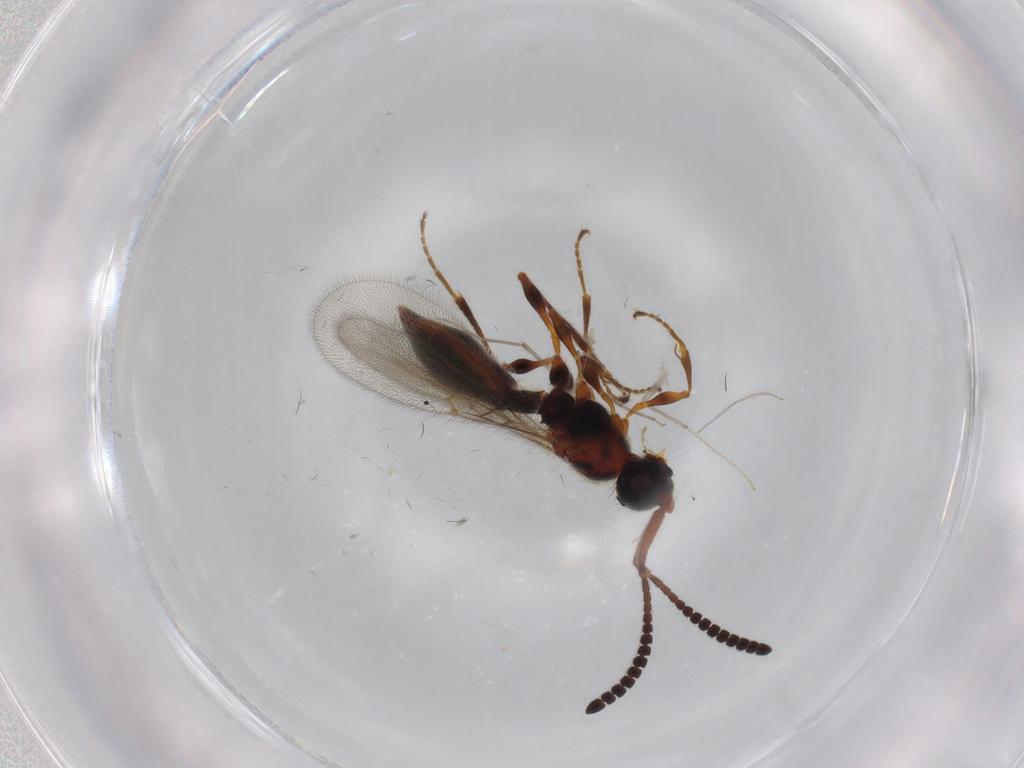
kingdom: Animalia
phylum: Arthropoda
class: Insecta
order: Hymenoptera
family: Diapriidae
